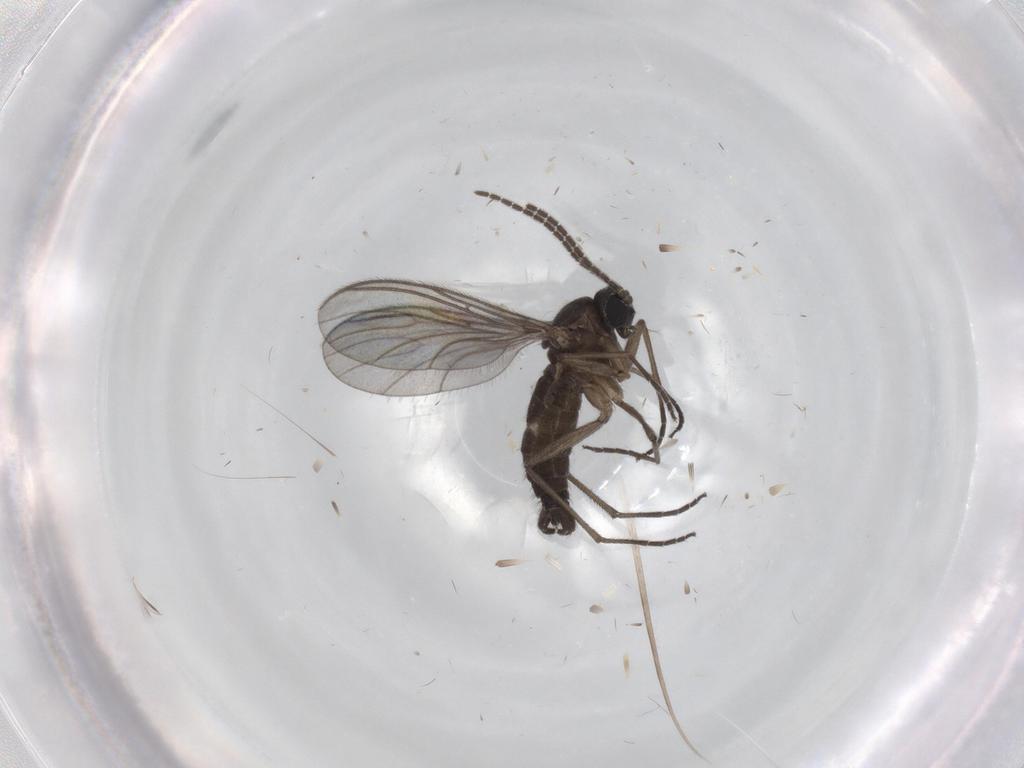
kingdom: Animalia
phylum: Arthropoda
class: Insecta
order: Diptera
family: Sciaridae
